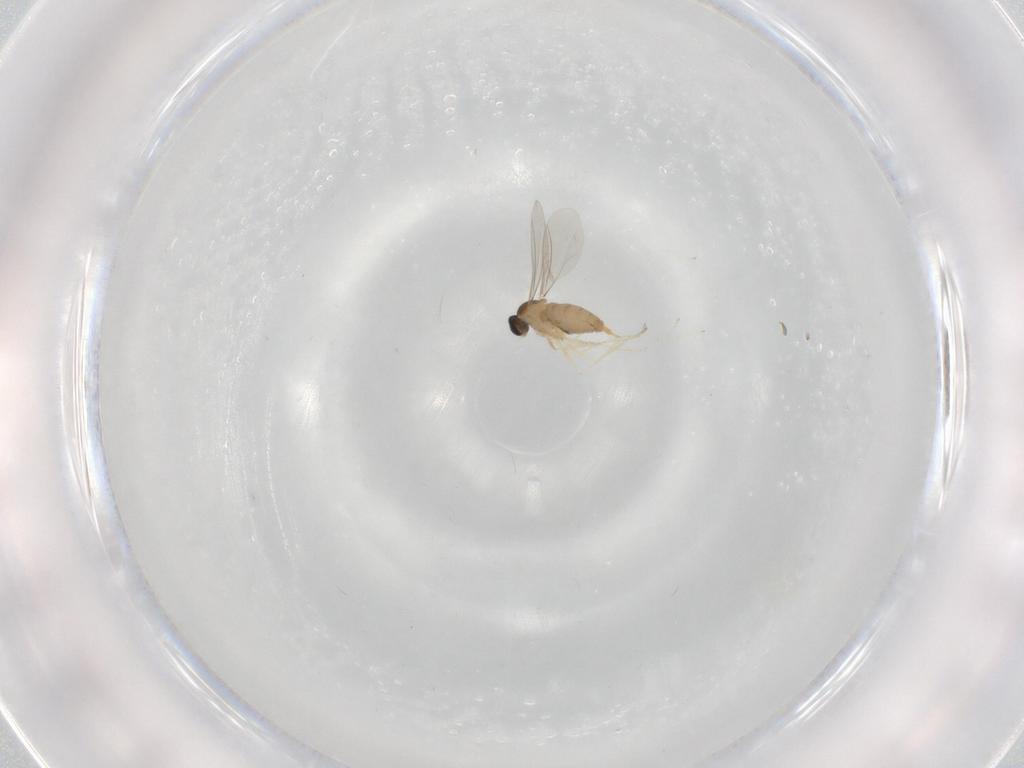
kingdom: Animalia
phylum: Arthropoda
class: Insecta
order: Diptera
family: Cecidomyiidae
